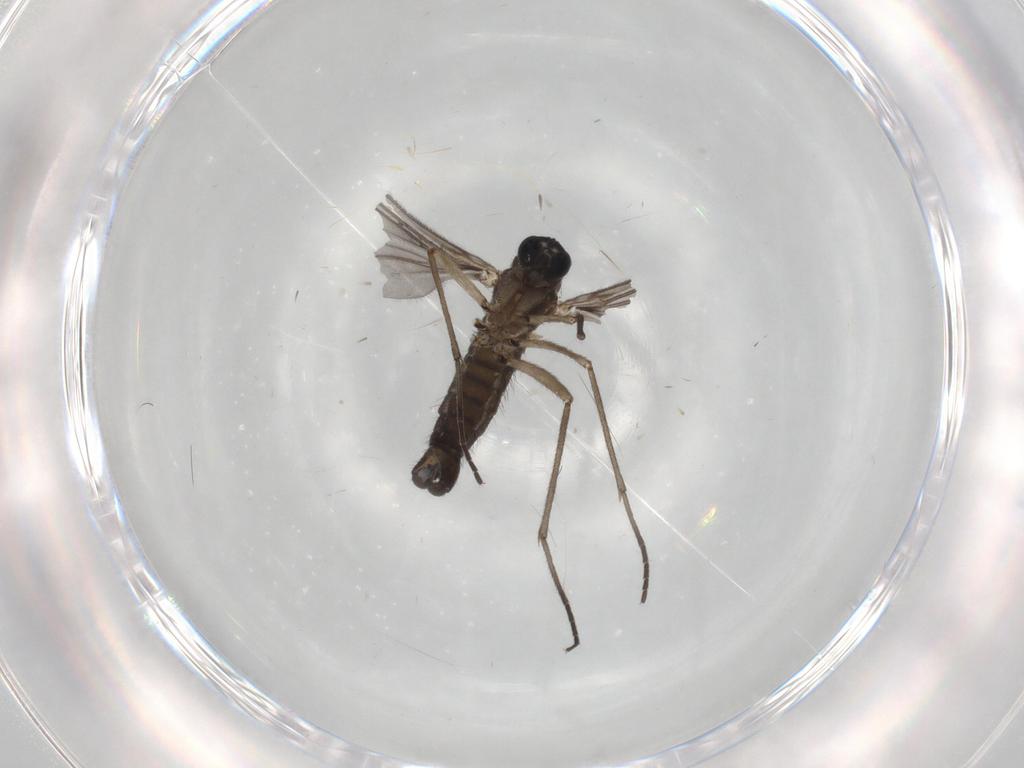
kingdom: Animalia
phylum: Arthropoda
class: Insecta
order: Diptera
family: Sciaridae
